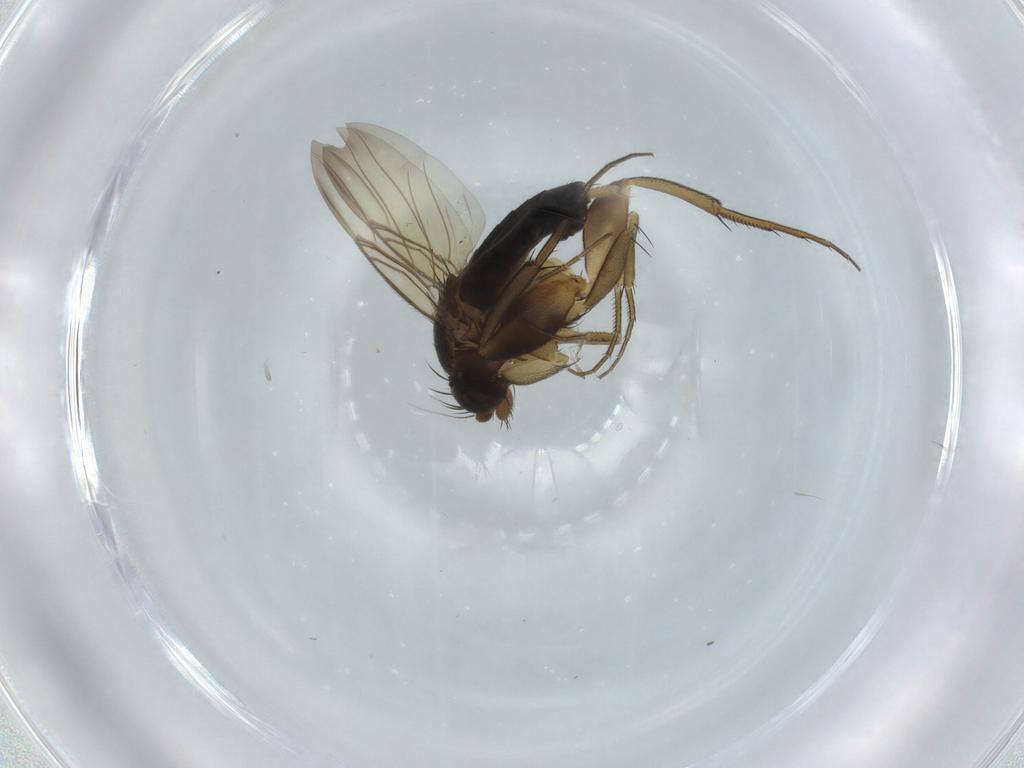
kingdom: Animalia
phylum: Arthropoda
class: Insecta
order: Diptera
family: Phoridae
